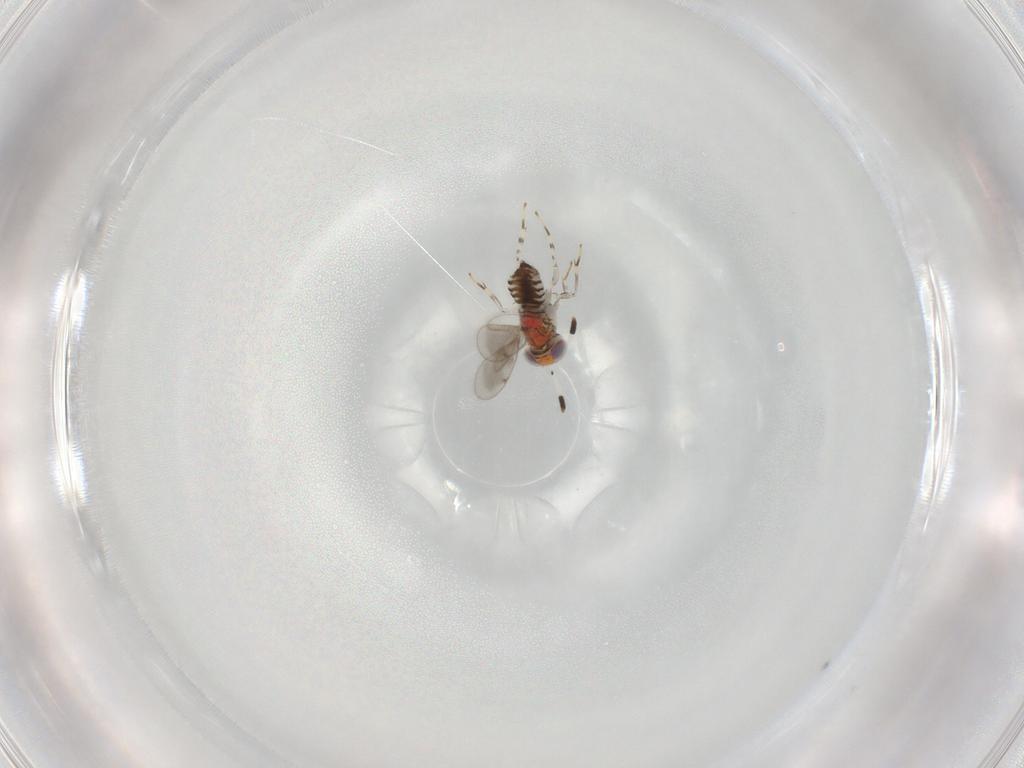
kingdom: Animalia
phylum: Arthropoda
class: Insecta
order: Hymenoptera
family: Aphelinidae
